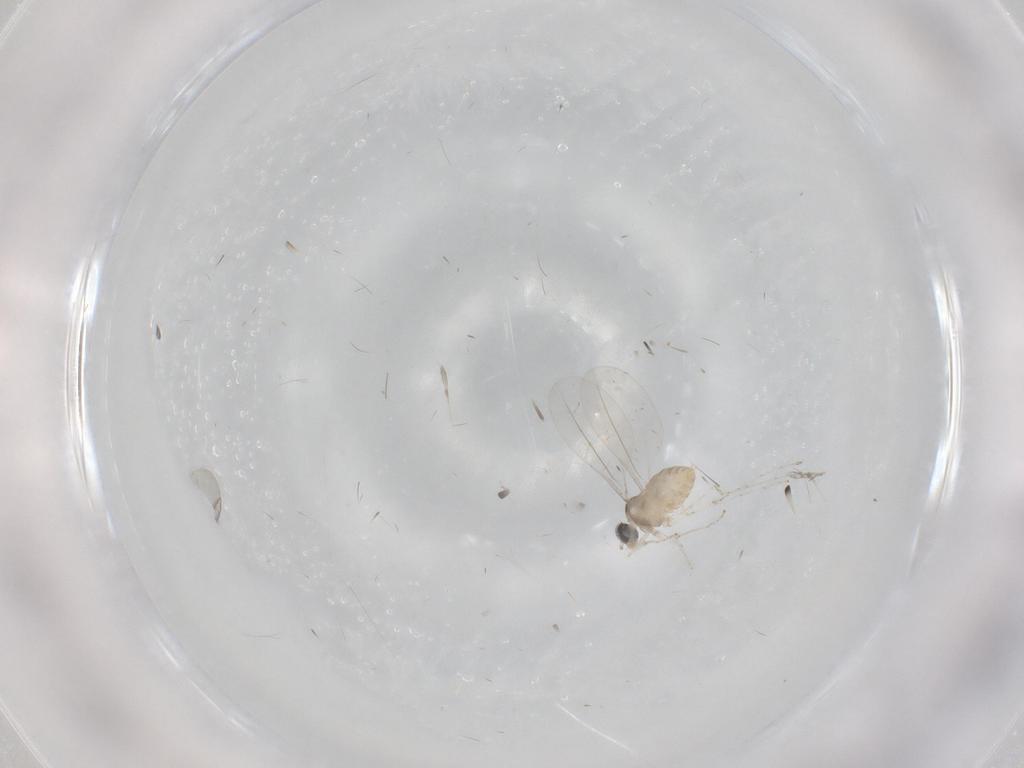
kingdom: Animalia
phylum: Arthropoda
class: Insecta
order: Diptera
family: Cecidomyiidae
